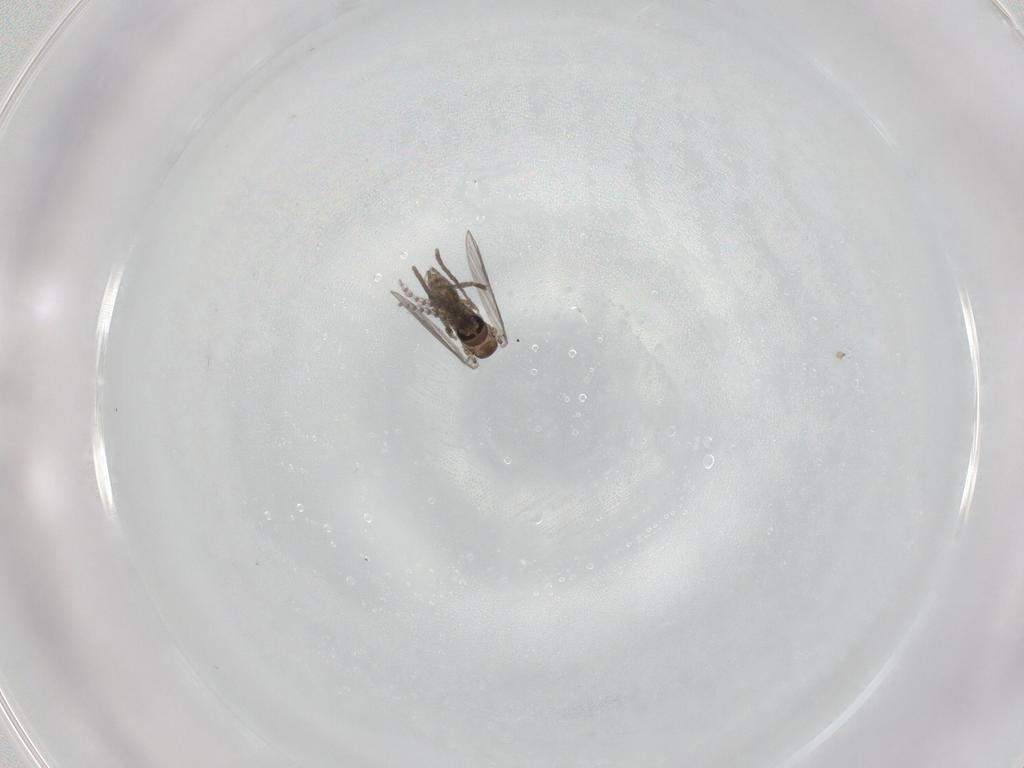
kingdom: Animalia
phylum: Arthropoda
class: Insecta
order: Diptera
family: Psychodidae
